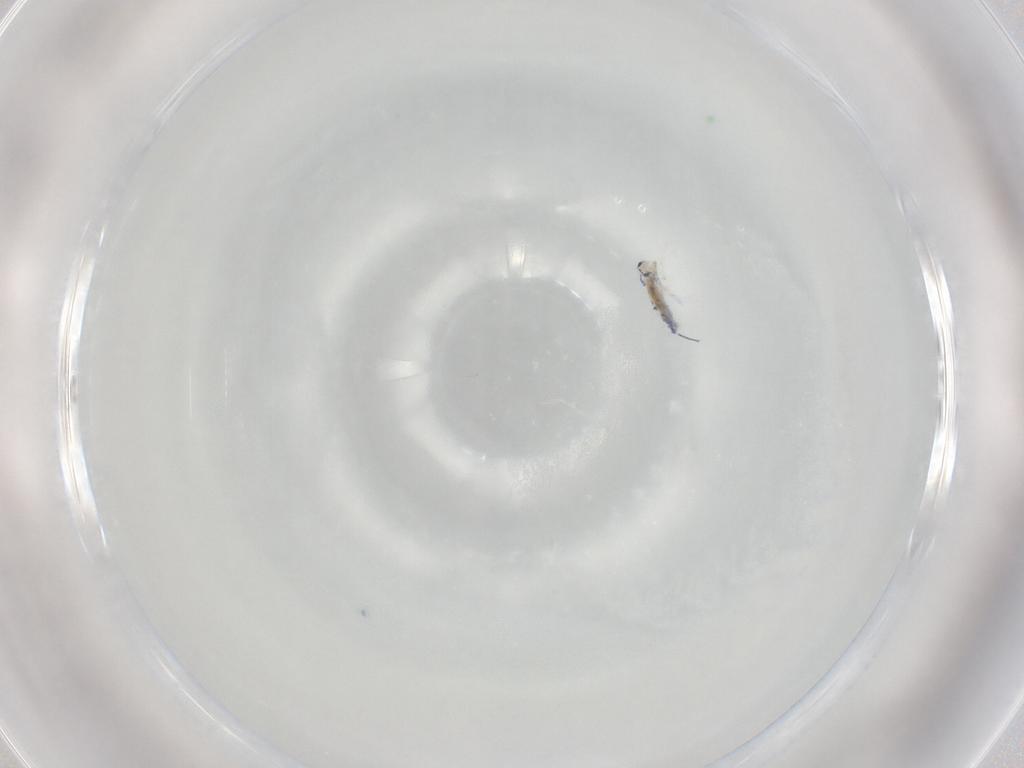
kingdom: Animalia
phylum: Arthropoda
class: Collembola
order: Entomobryomorpha
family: Entomobryidae
